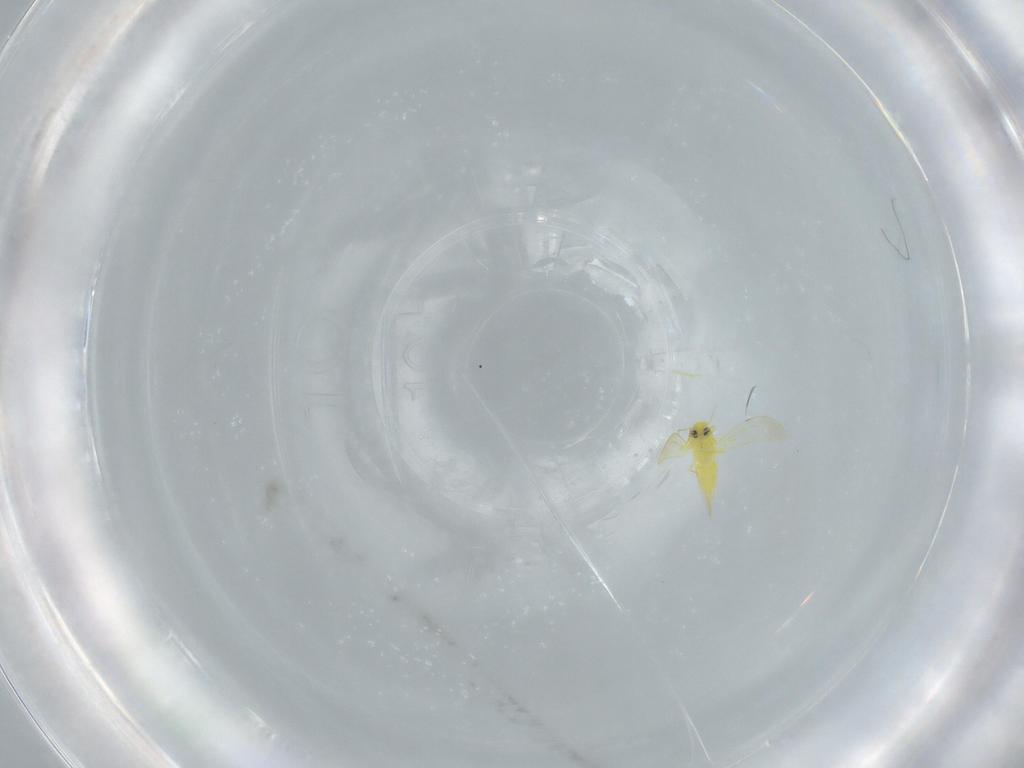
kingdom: Animalia
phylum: Arthropoda
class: Insecta
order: Hemiptera
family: Aleyrodidae
